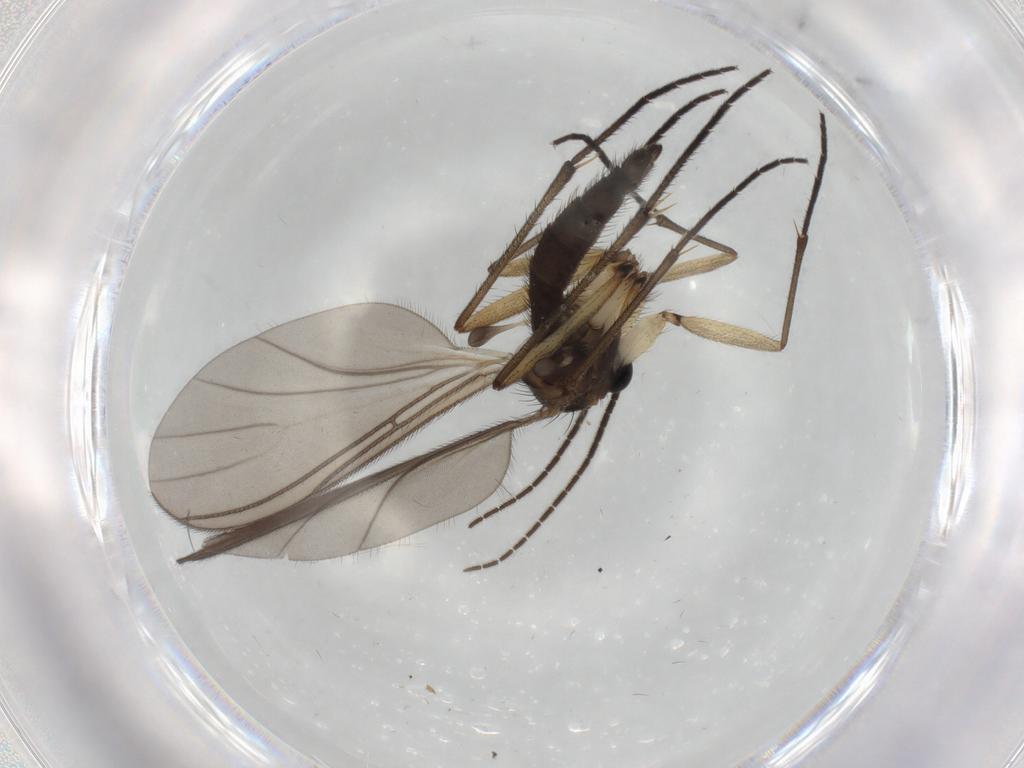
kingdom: Animalia
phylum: Arthropoda
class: Insecta
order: Diptera
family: Sciaridae
